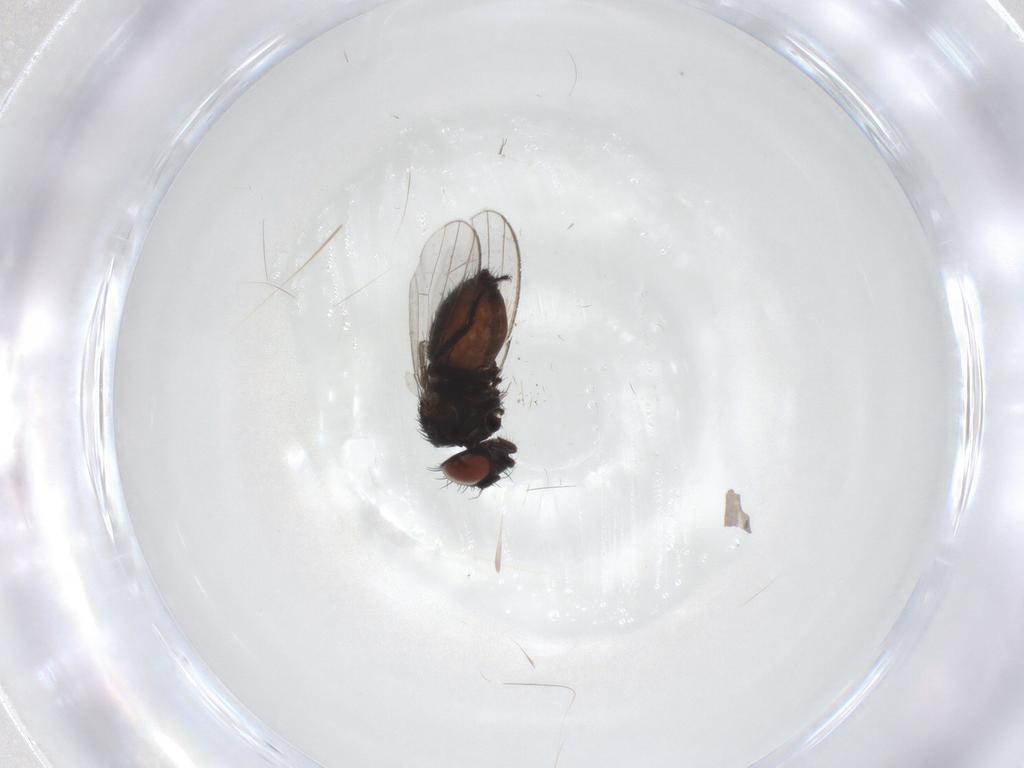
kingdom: Animalia
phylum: Arthropoda
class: Insecta
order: Diptera
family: Milichiidae
